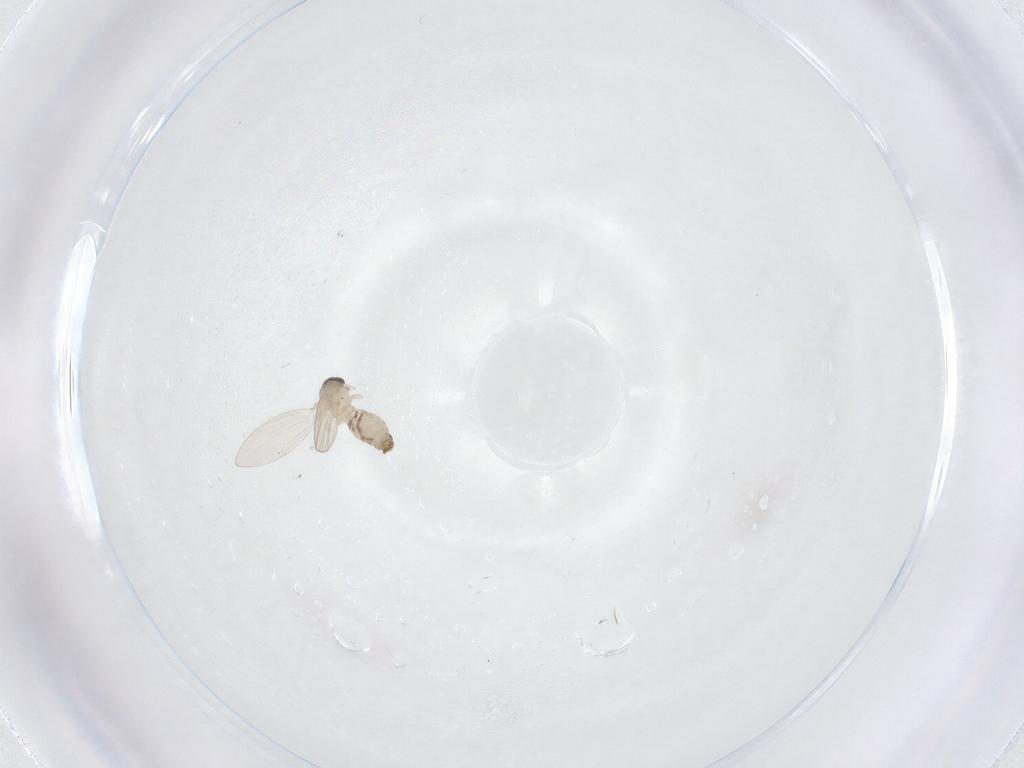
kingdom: Animalia
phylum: Arthropoda
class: Insecta
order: Diptera
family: Psychodidae
